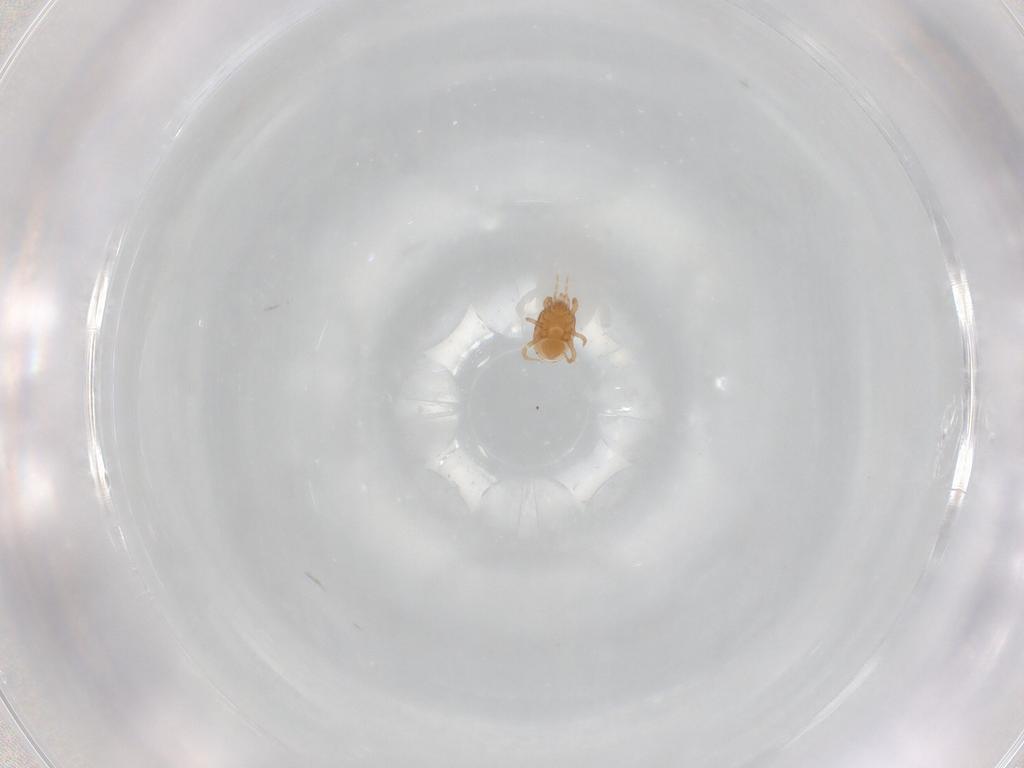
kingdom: Animalia
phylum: Arthropoda
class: Arachnida
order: Mesostigmata
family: Macrochelidae
